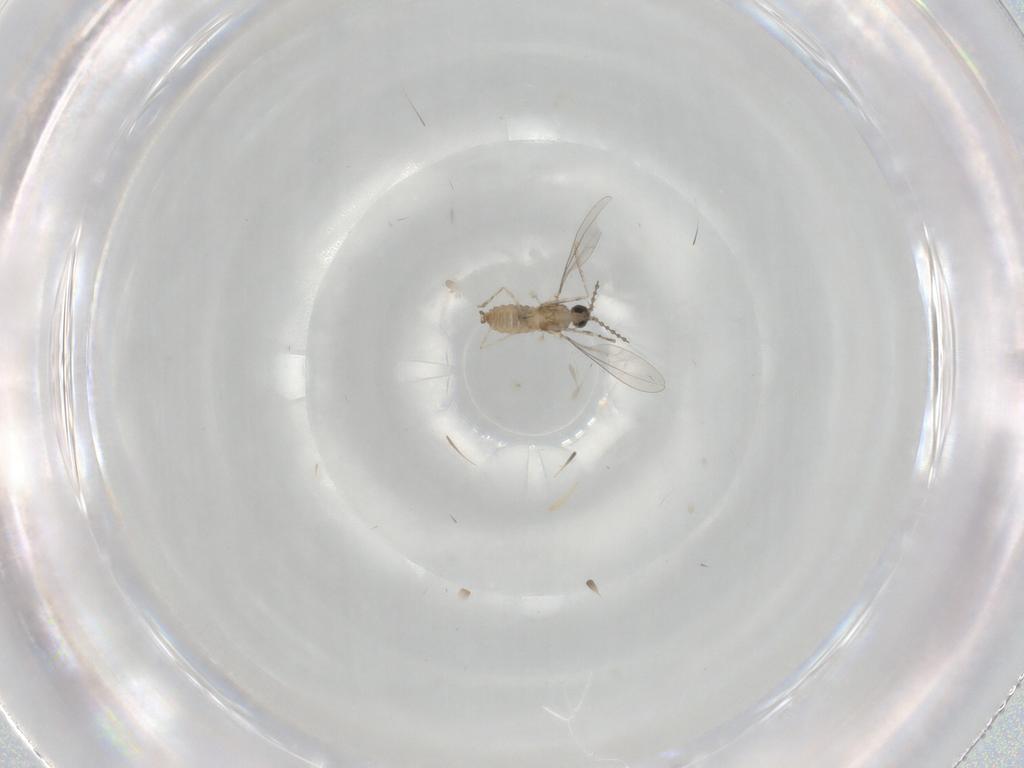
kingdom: Animalia
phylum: Arthropoda
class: Insecta
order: Diptera
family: Cecidomyiidae
